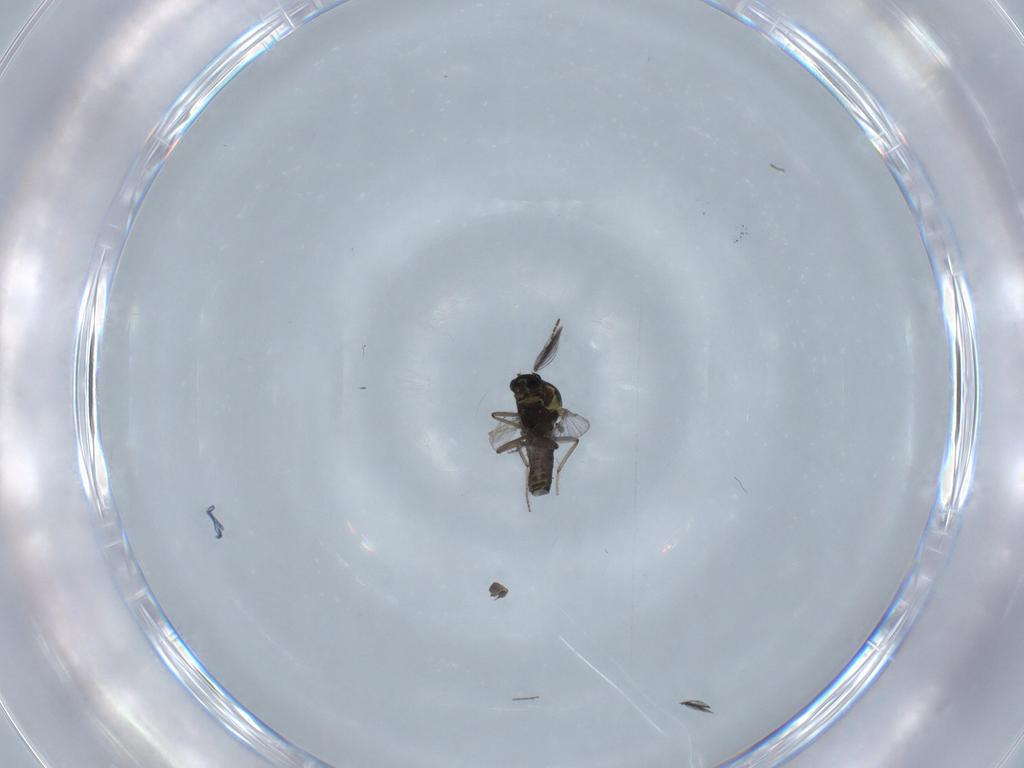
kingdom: Animalia
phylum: Arthropoda
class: Insecta
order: Diptera
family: Ceratopogonidae
